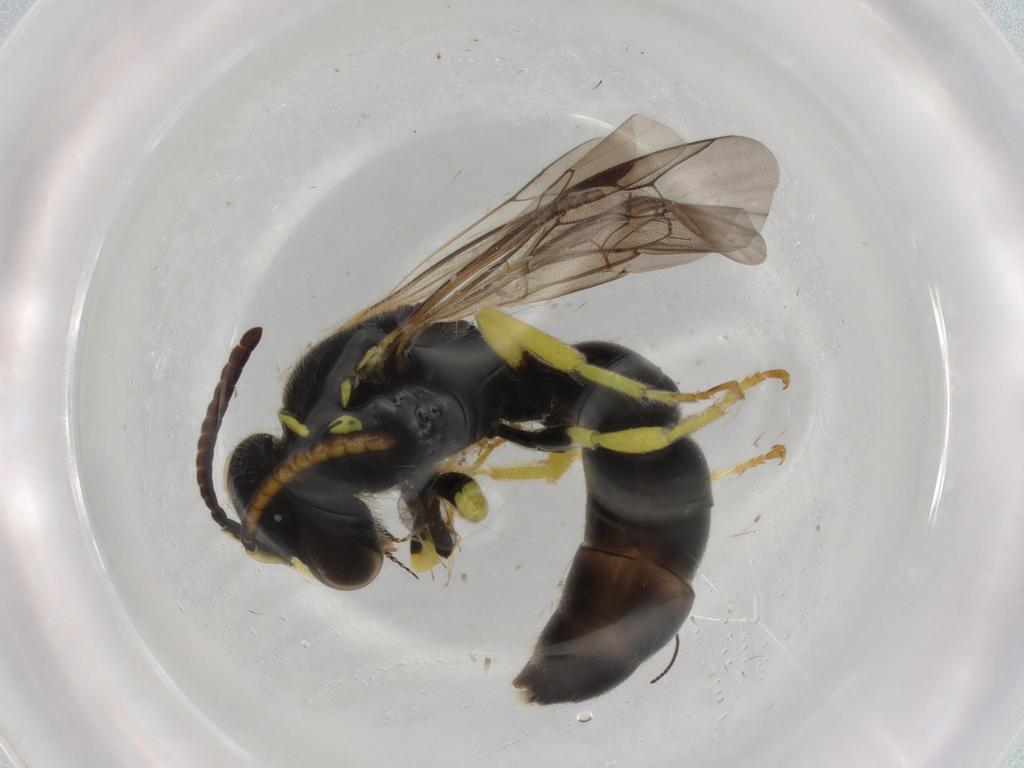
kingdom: Animalia
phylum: Arthropoda
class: Insecta
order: Hymenoptera
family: Colletidae
